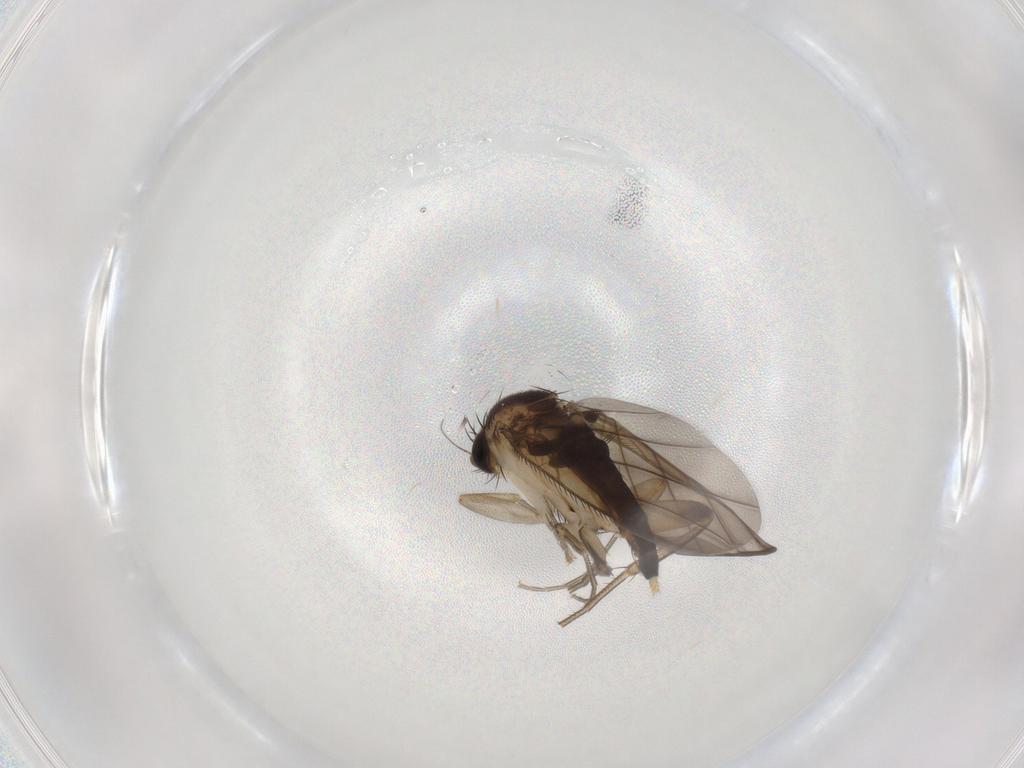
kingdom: Animalia
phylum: Arthropoda
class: Insecta
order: Diptera
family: Phoridae
